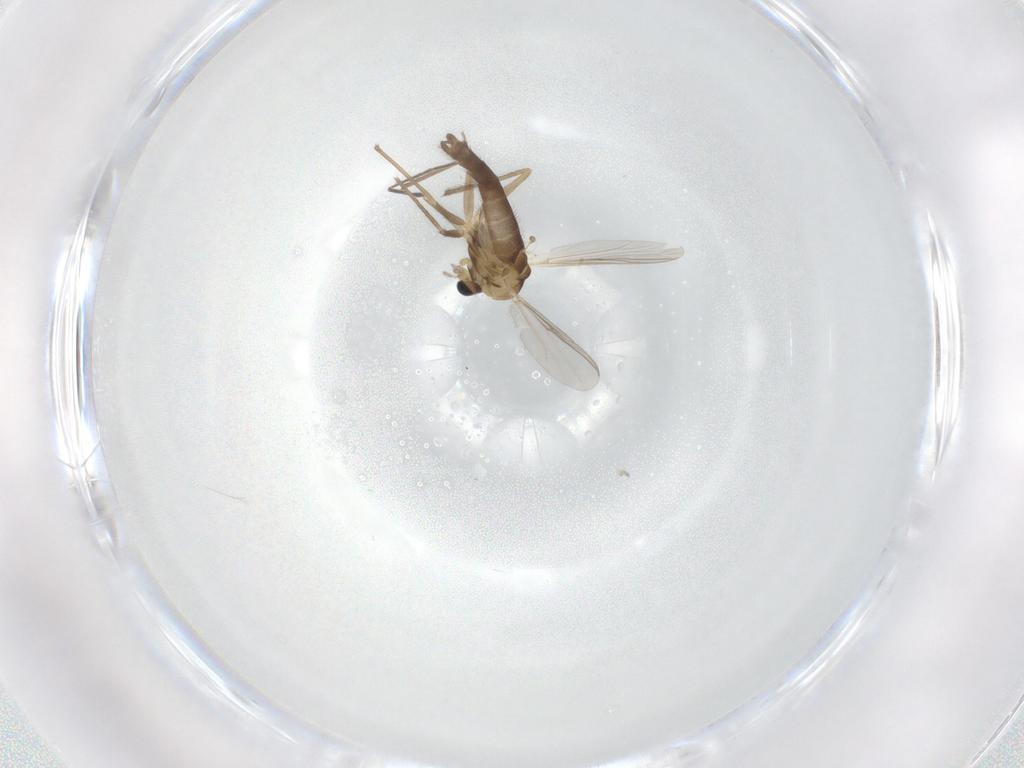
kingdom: Animalia
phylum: Arthropoda
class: Insecta
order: Diptera
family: Chironomidae
